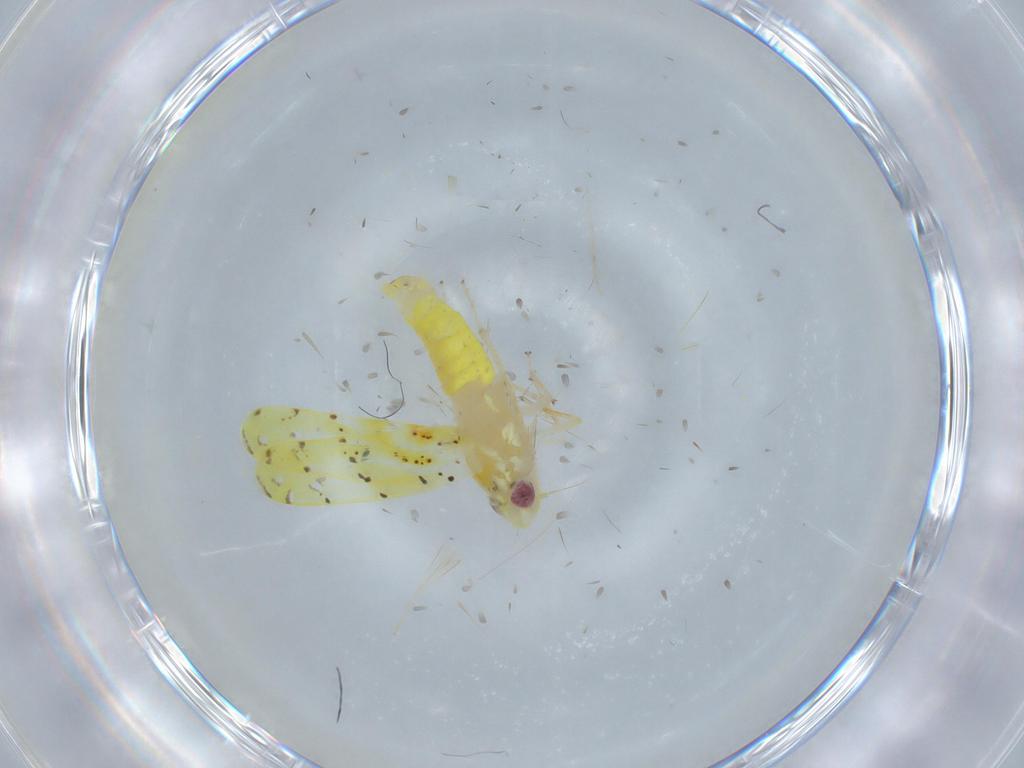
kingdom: Animalia
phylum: Arthropoda
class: Insecta
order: Hemiptera
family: Cicadellidae
